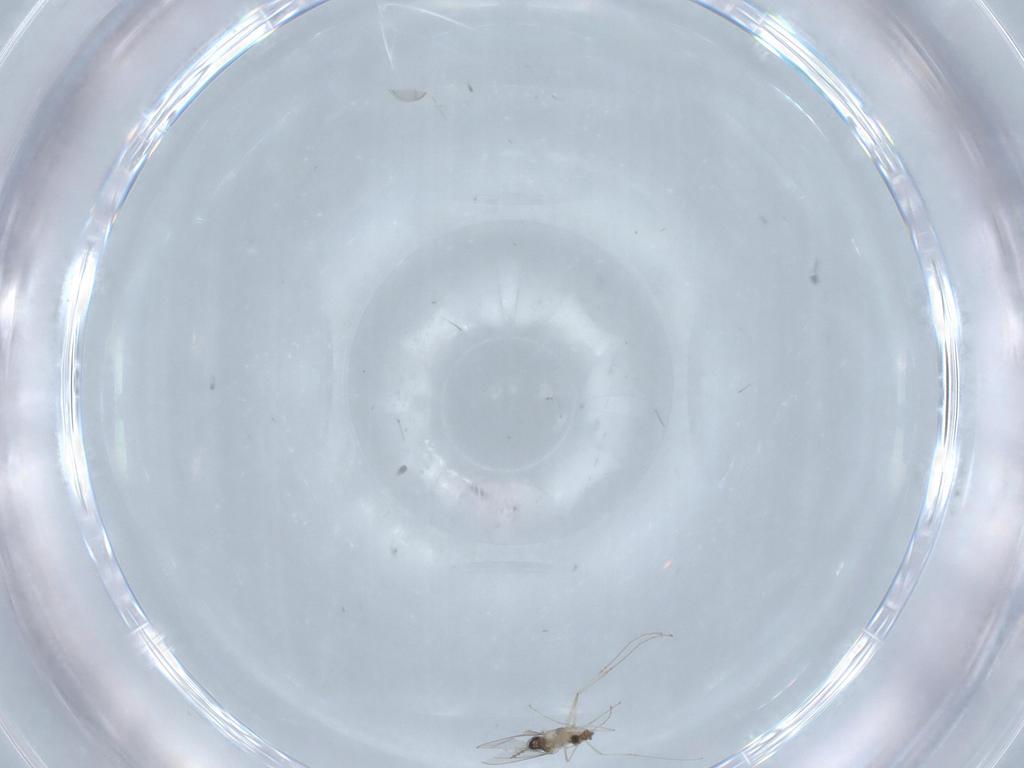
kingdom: Animalia
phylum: Arthropoda
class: Insecta
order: Diptera
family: Cecidomyiidae
